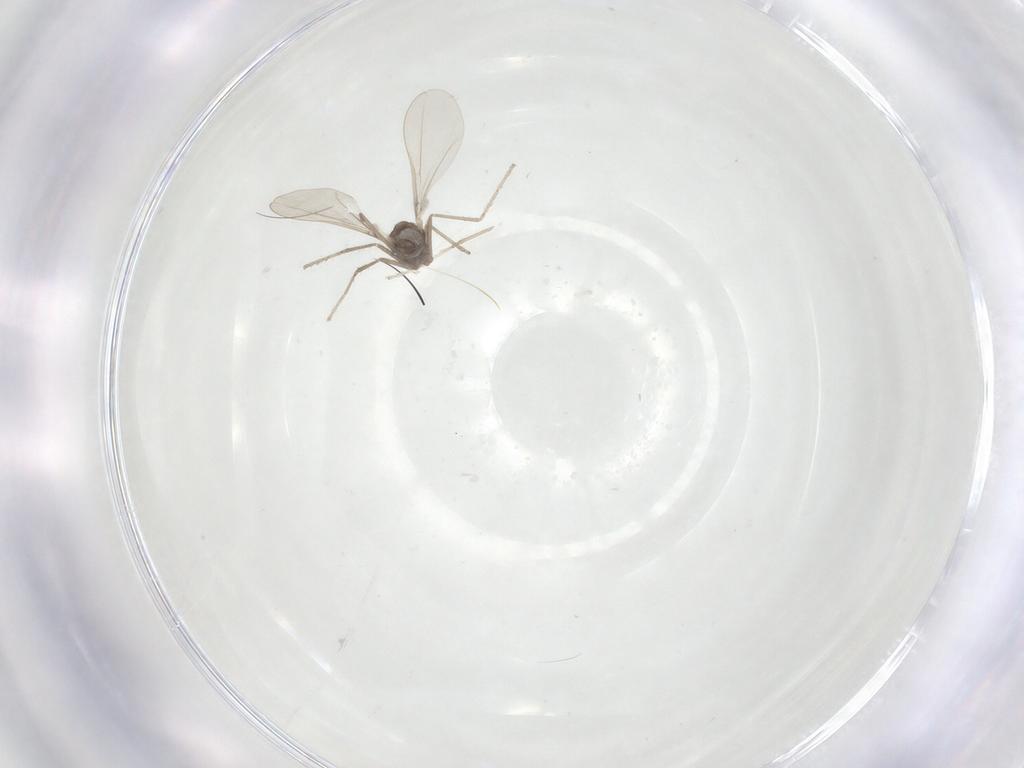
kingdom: Animalia
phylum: Arthropoda
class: Insecta
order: Diptera
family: Cecidomyiidae
